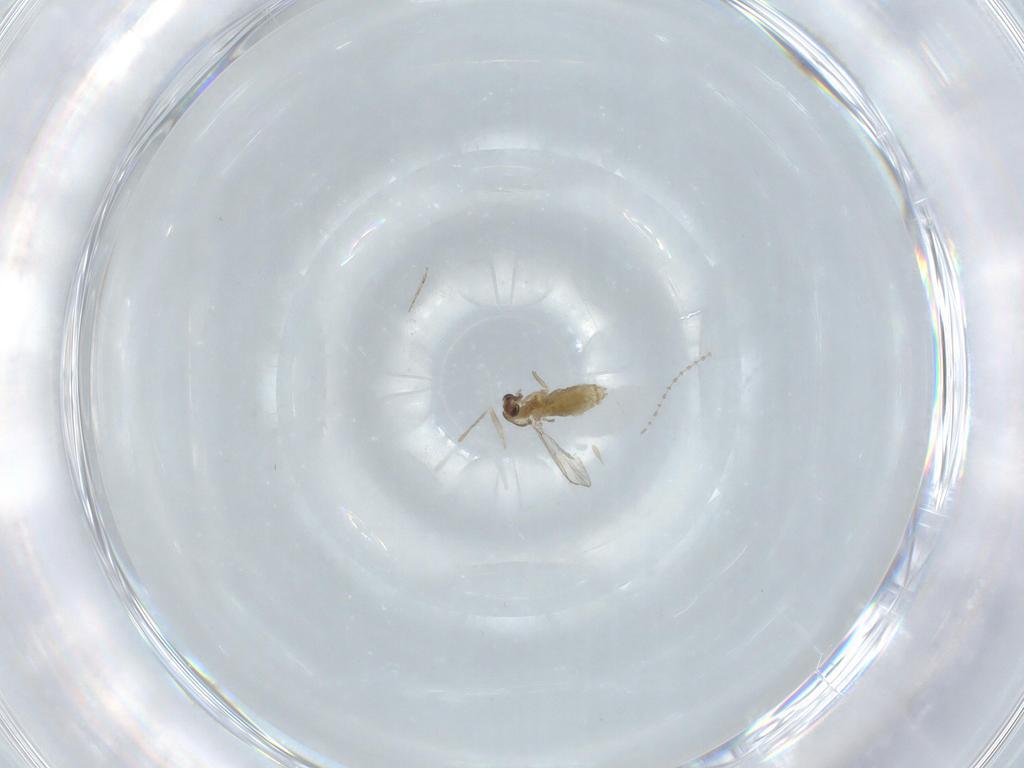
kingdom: Animalia
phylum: Arthropoda
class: Insecta
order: Diptera
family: Chironomidae
